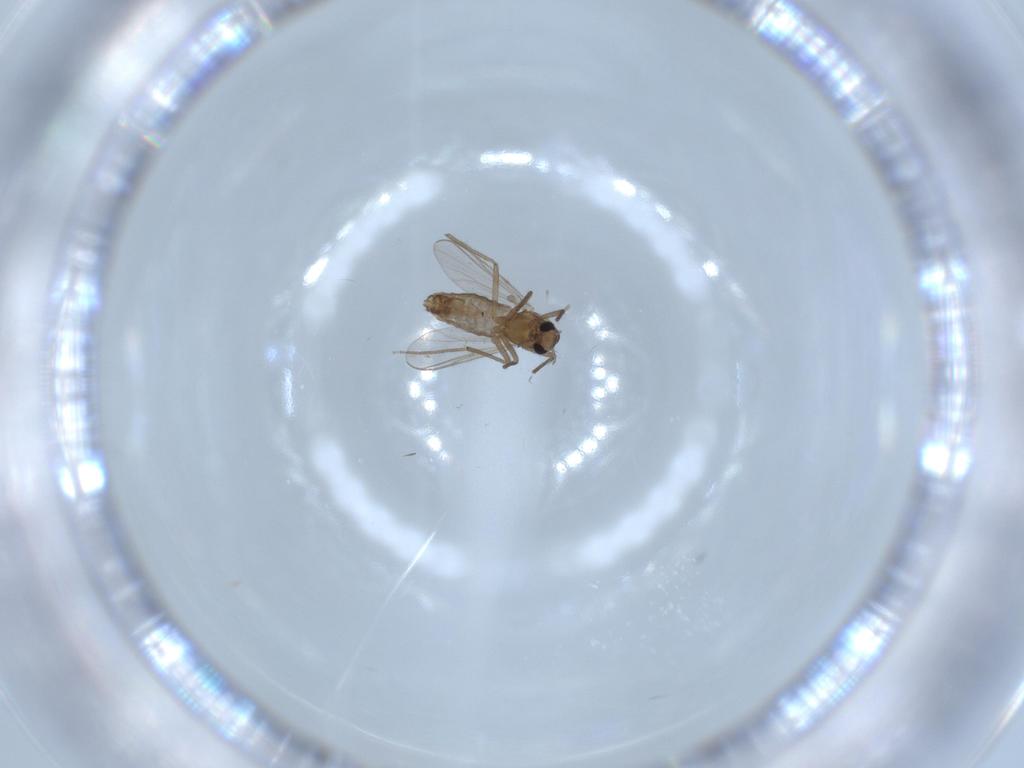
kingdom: Animalia
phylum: Arthropoda
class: Insecta
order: Diptera
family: Chironomidae
